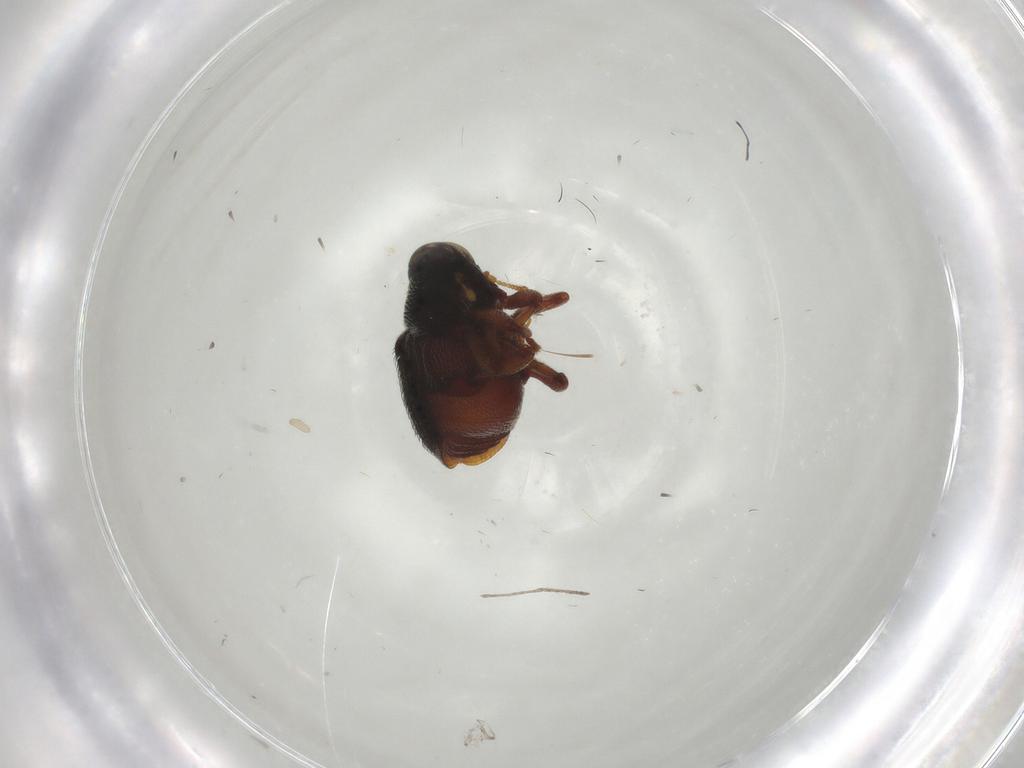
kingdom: Animalia
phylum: Arthropoda
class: Insecta
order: Coleoptera
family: Curculionidae
